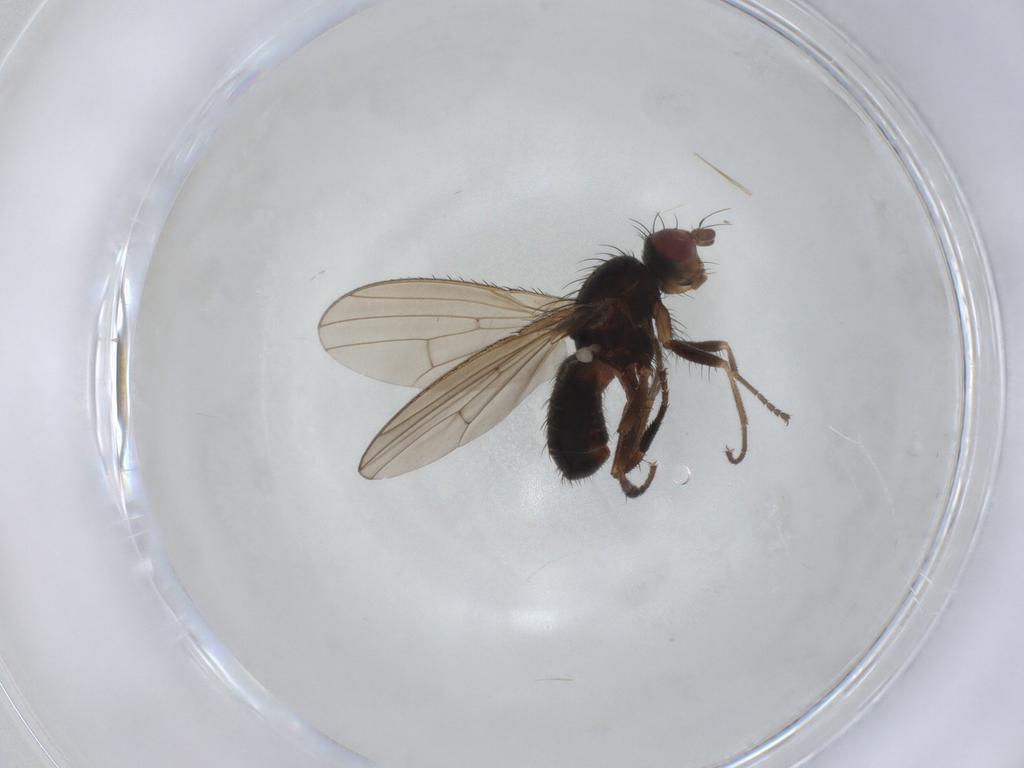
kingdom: Animalia
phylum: Arthropoda
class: Insecta
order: Diptera
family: Heleomyzidae
